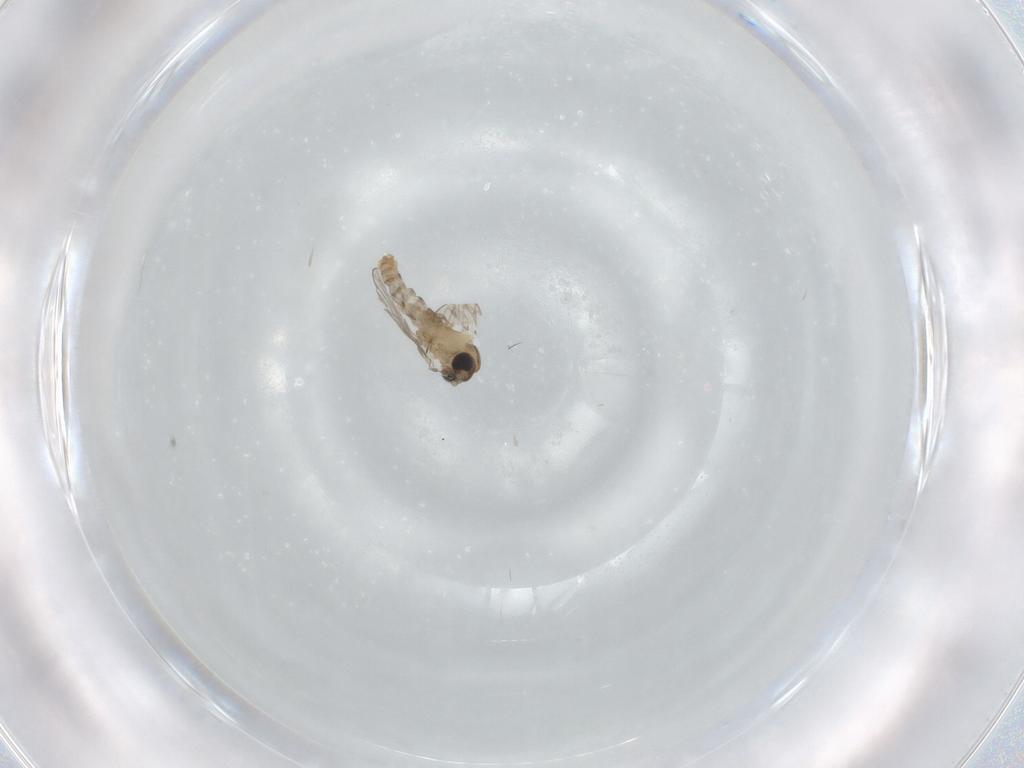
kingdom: Animalia
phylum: Arthropoda
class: Insecta
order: Diptera
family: Psychodidae
